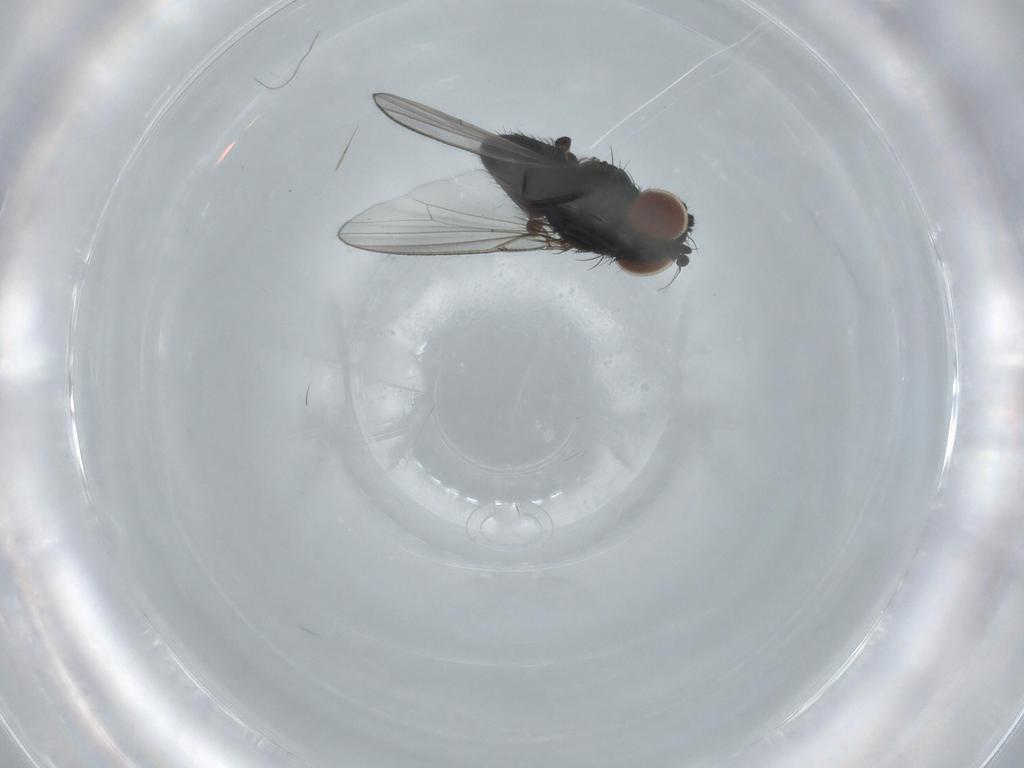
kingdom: Animalia
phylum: Arthropoda
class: Insecta
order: Diptera
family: Milichiidae
